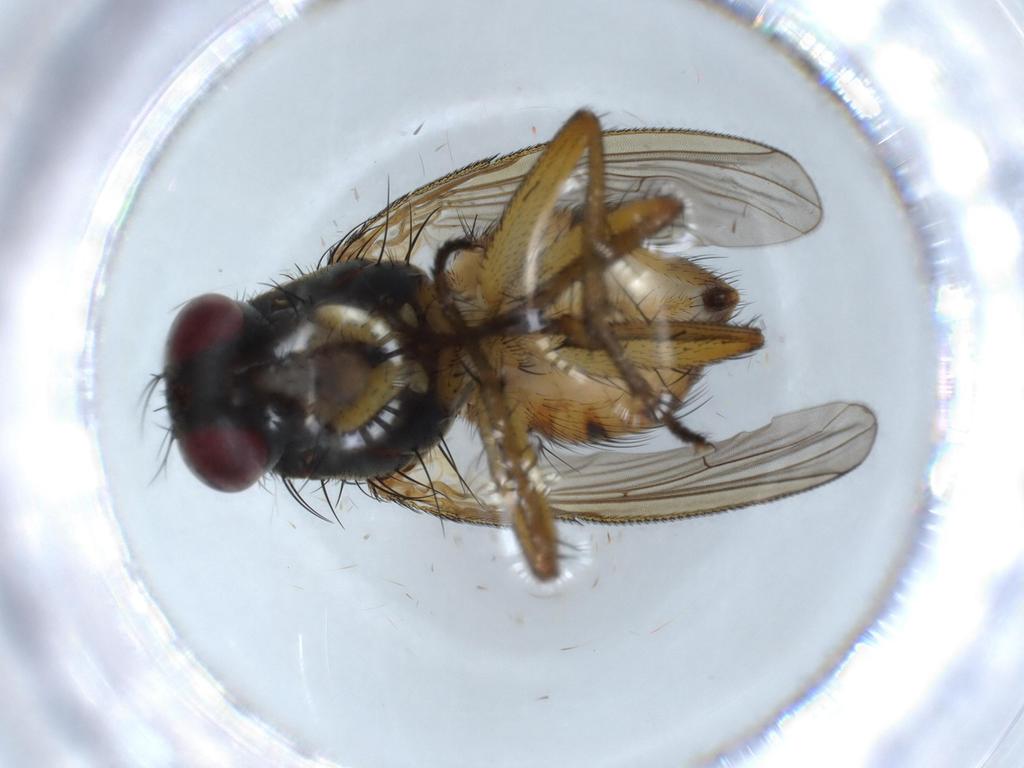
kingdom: Animalia
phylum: Arthropoda
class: Insecta
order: Diptera
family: Muscidae
